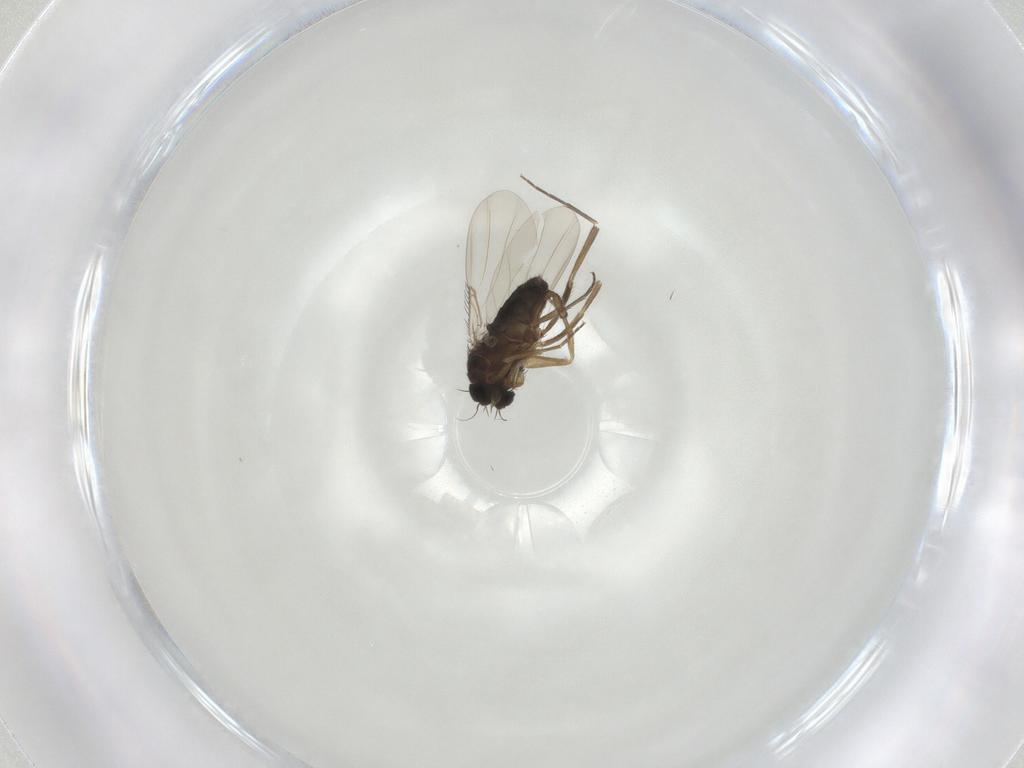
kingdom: Animalia
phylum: Arthropoda
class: Insecta
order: Diptera
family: Phoridae
